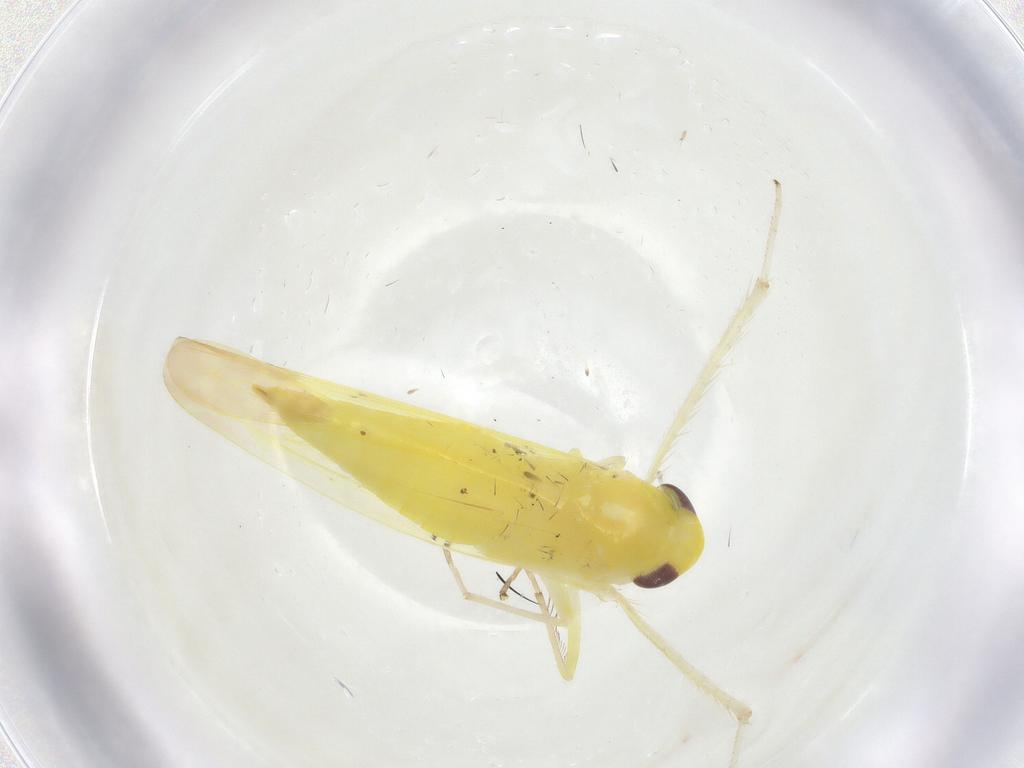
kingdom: Animalia
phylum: Arthropoda
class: Insecta
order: Hemiptera
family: Cicadellidae
